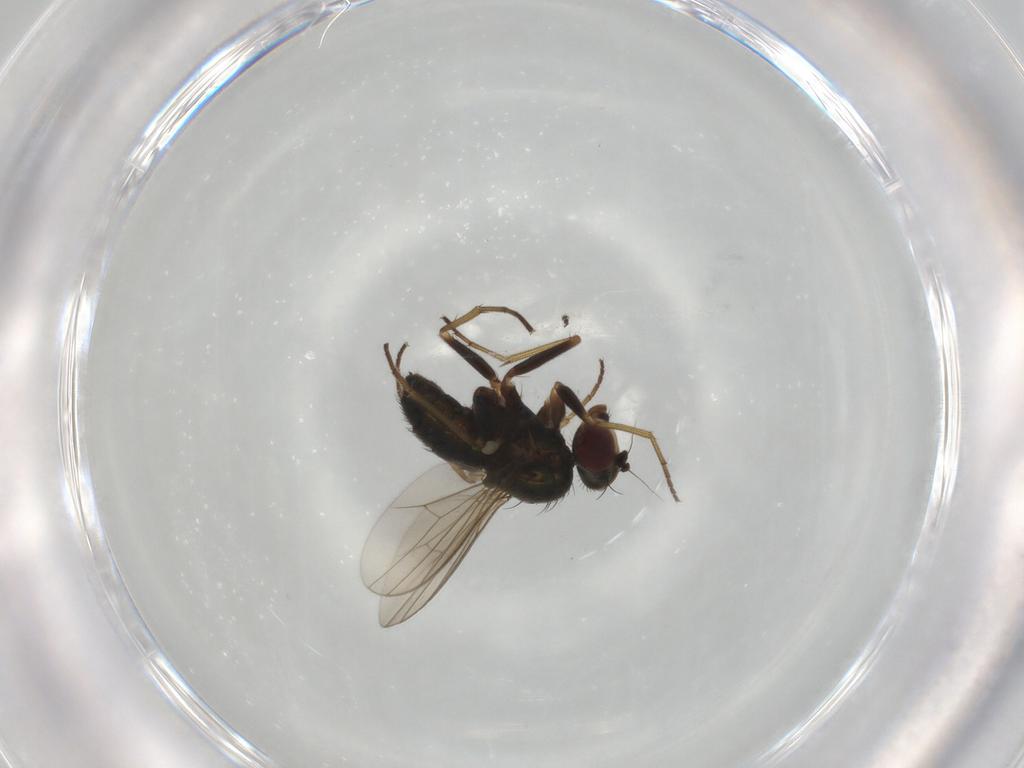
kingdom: Animalia
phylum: Arthropoda
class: Insecta
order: Diptera
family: Dolichopodidae
